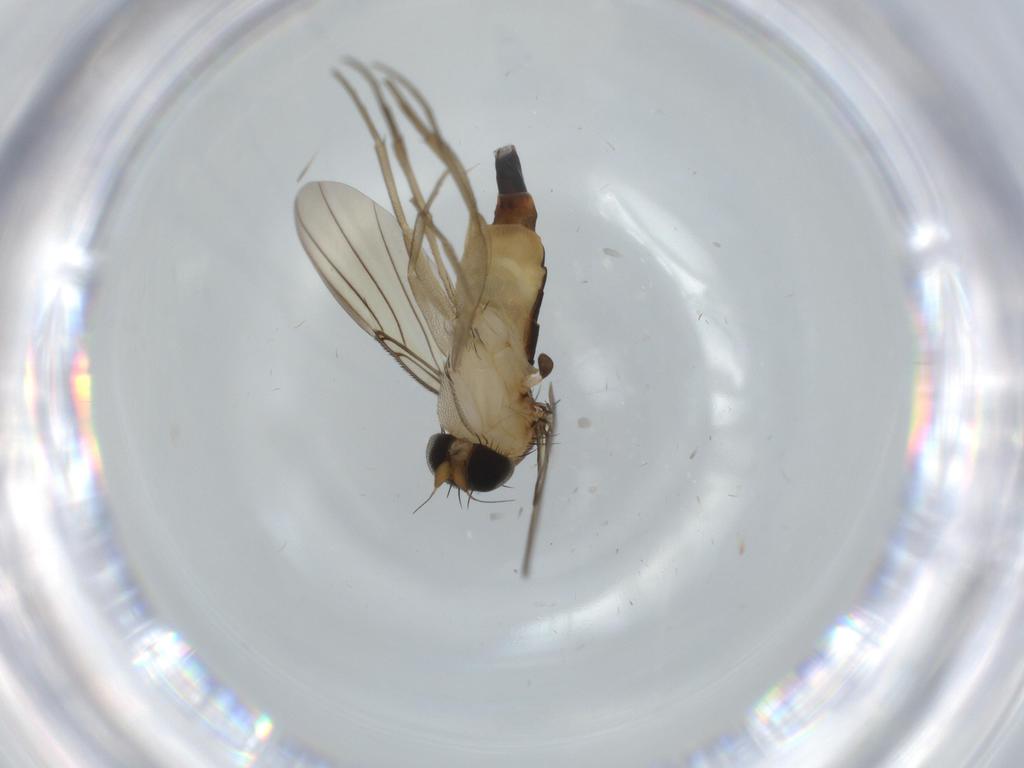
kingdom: Animalia
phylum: Arthropoda
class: Insecta
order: Diptera
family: Phoridae
